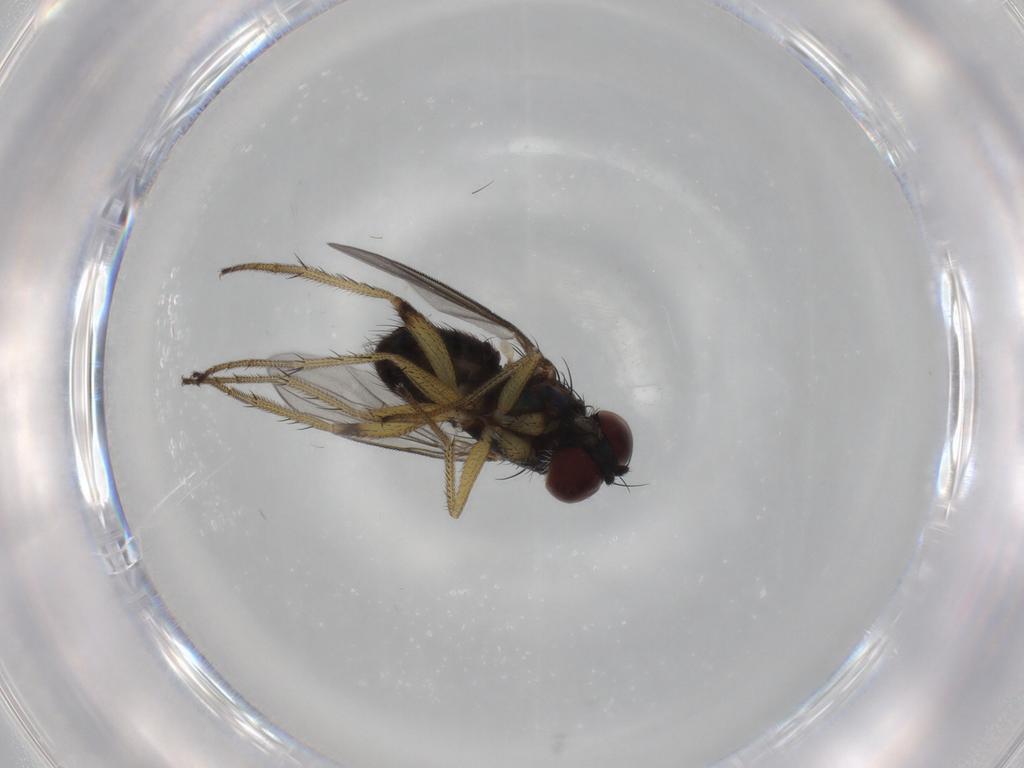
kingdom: Animalia
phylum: Arthropoda
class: Insecta
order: Diptera
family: Dolichopodidae
